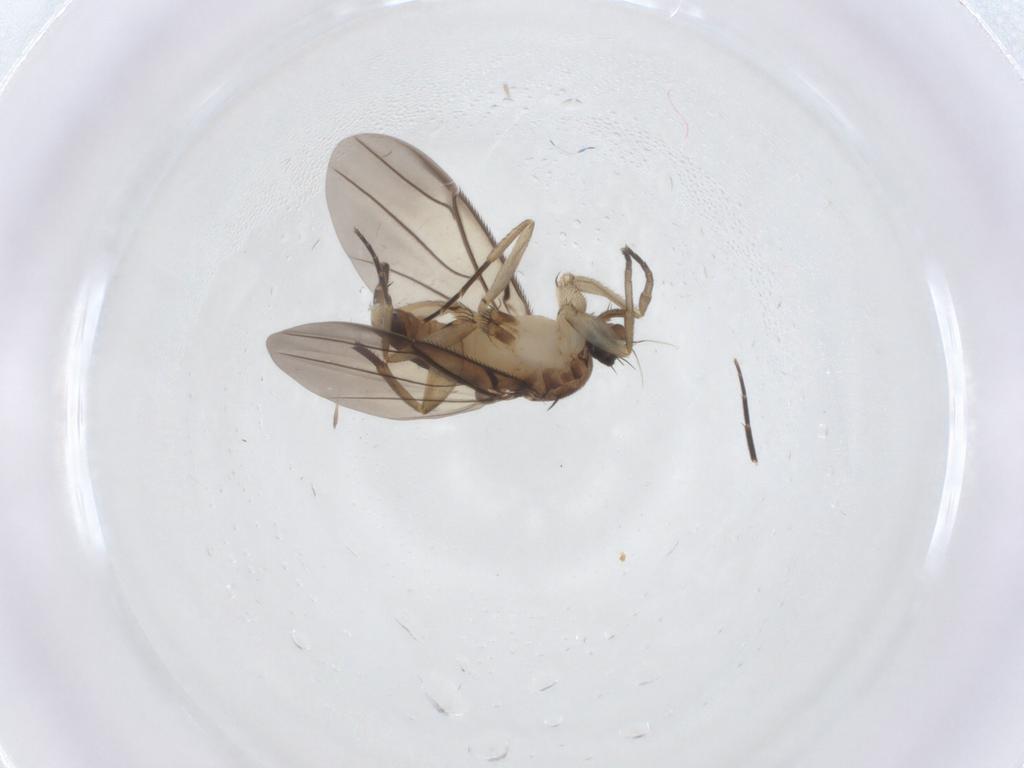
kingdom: Animalia
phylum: Arthropoda
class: Insecta
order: Diptera
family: Phoridae
